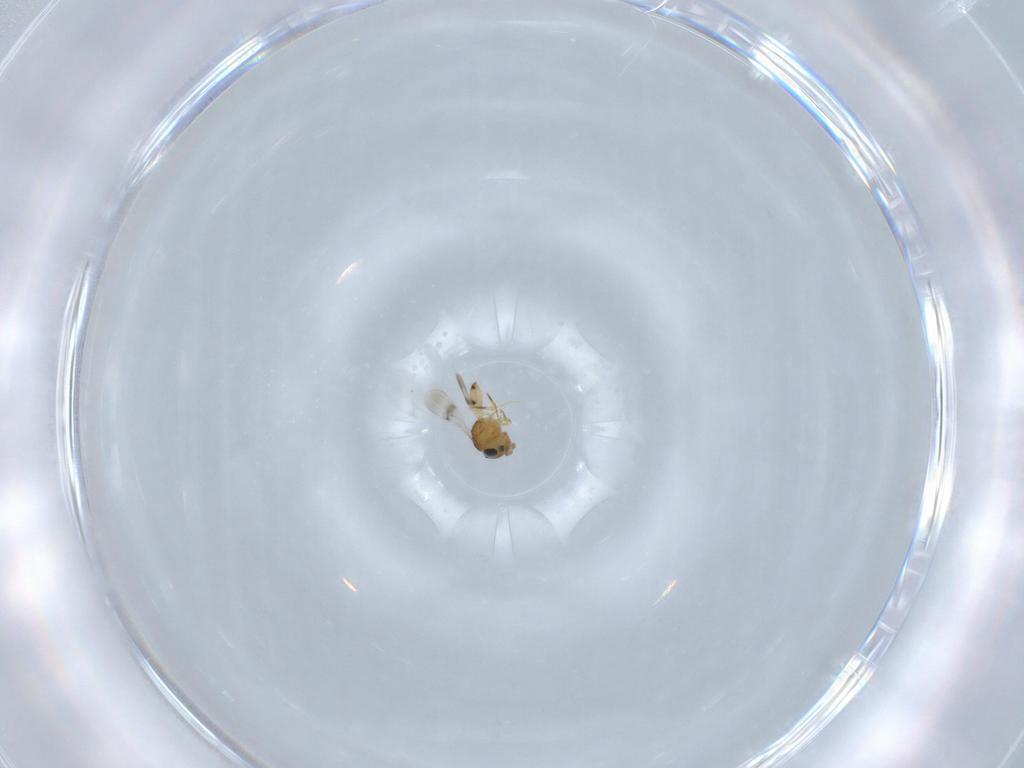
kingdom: Animalia
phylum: Arthropoda
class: Insecta
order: Hymenoptera
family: Scelionidae
